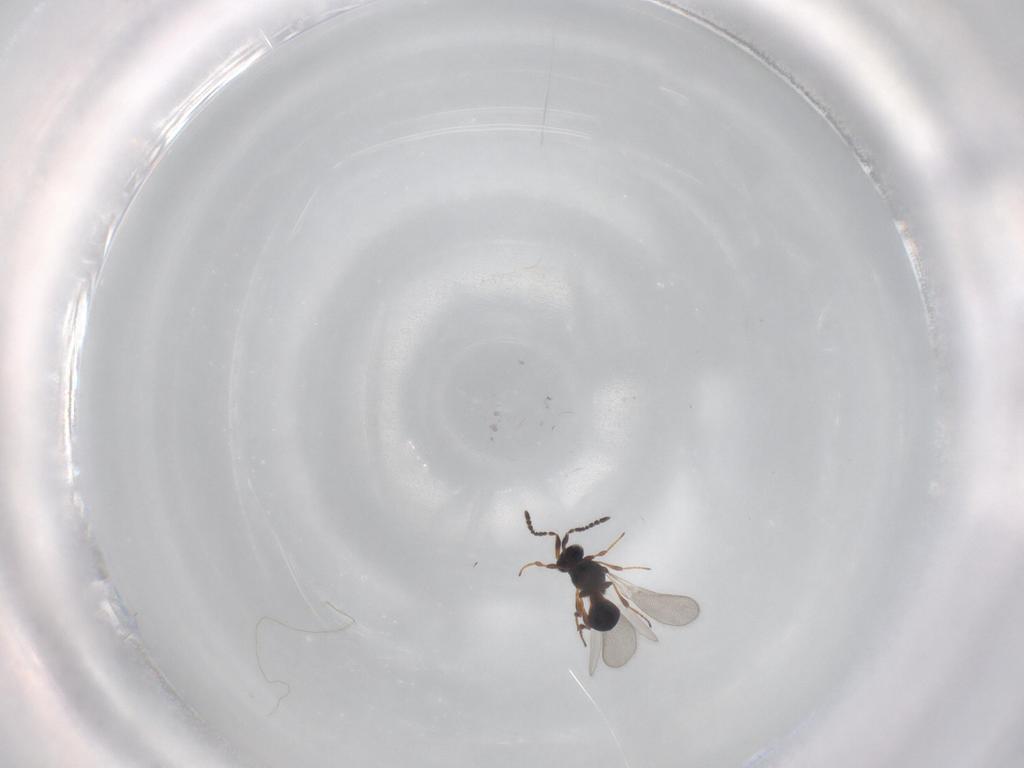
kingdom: Animalia
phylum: Arthropoda
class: Insecta
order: Hymenoptera
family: Platygastridae
